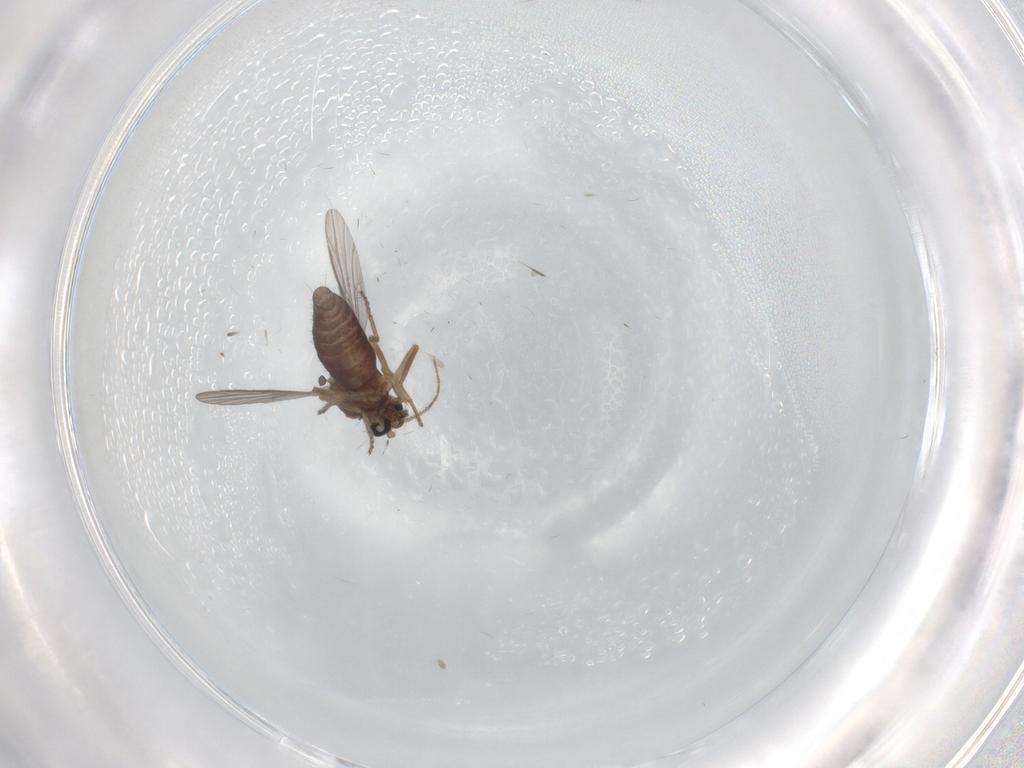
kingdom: Animalia
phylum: Arthropoda
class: Insecta
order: Diptera
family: Ceratopogonidae
